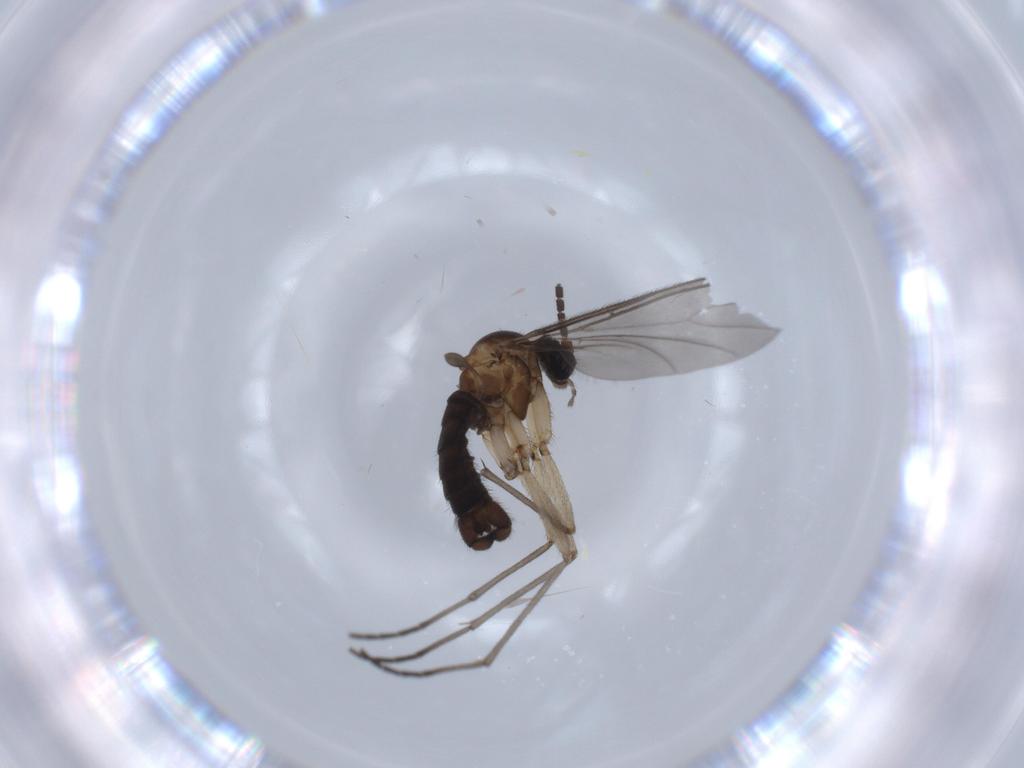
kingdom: Animalia
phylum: Arthropoda
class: Insecta
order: Diptera
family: Sciaridae
